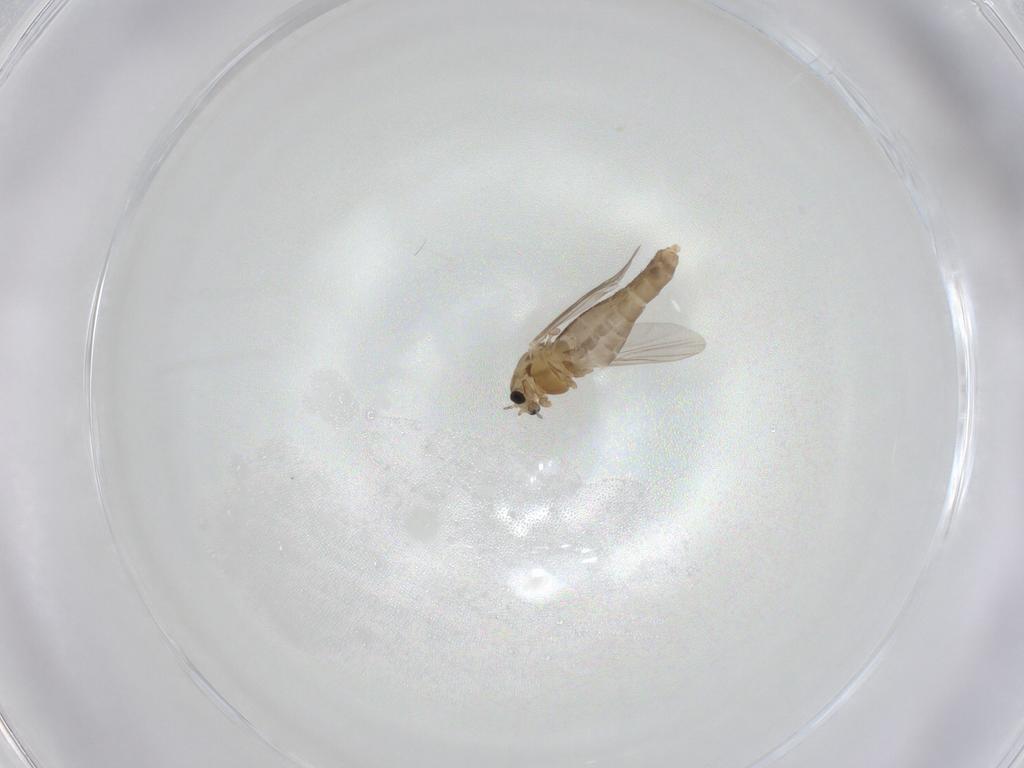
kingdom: Animalia
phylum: Arthropoda
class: Insecta
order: Diptera
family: Chironomidae
